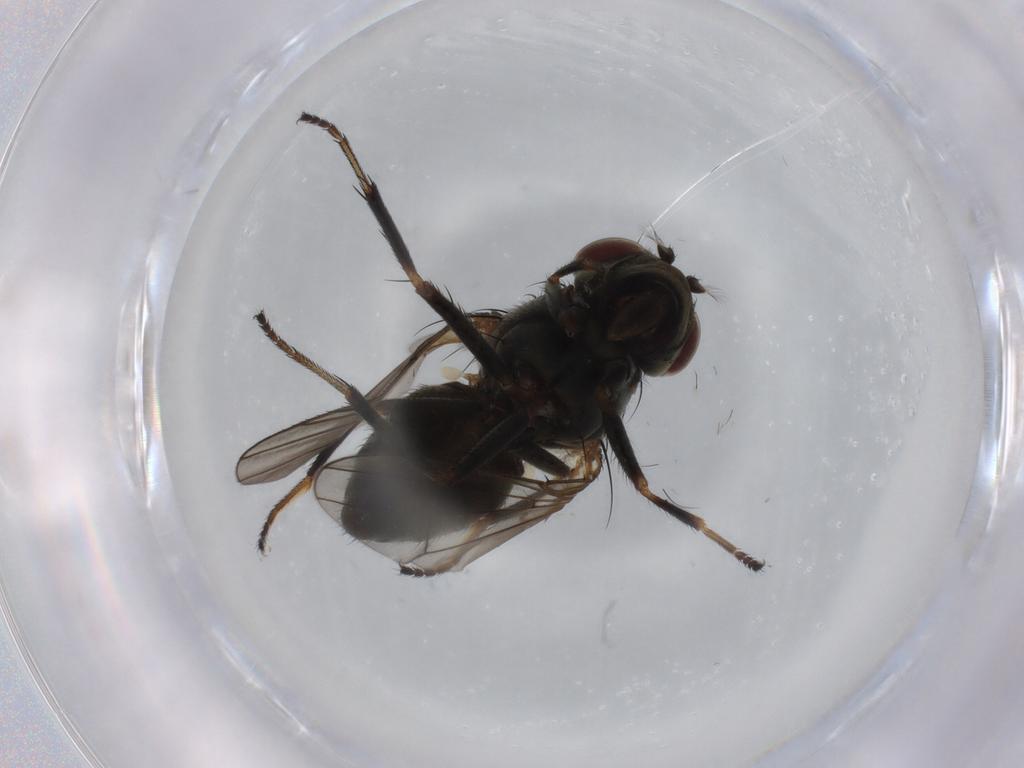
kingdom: Animalia
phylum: Arthropoda
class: Insecta
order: Diptera
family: Ephydridae
